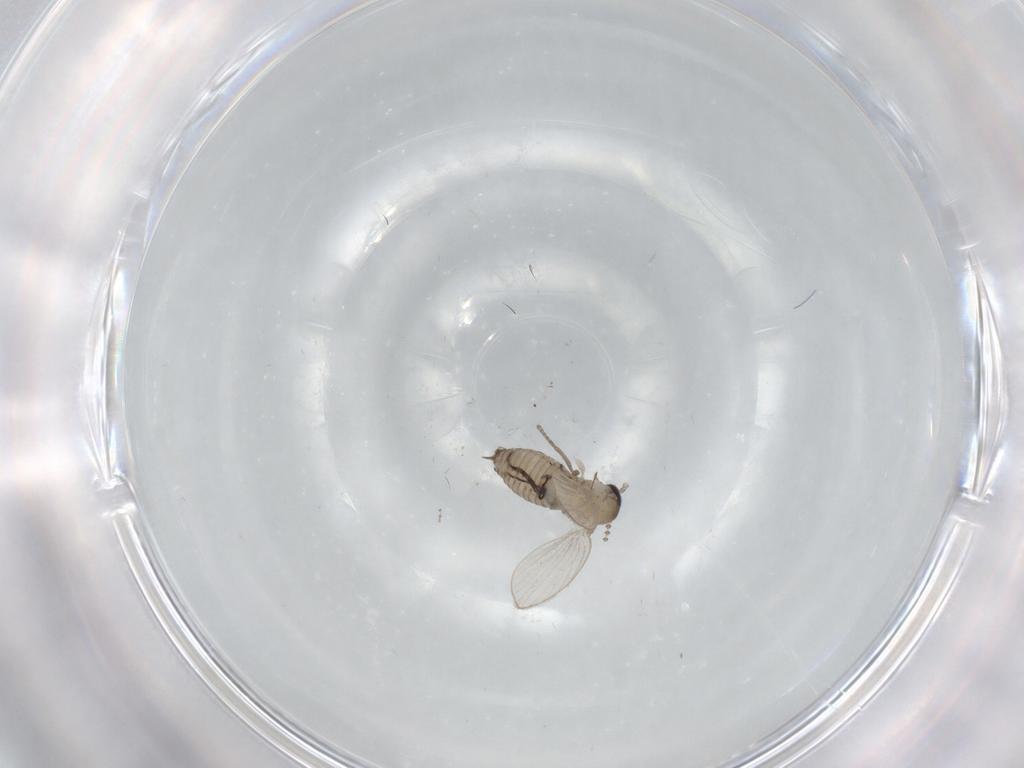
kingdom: Animalia
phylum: Arthropoda
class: Insecta
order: Diptera
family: Psychodidae
